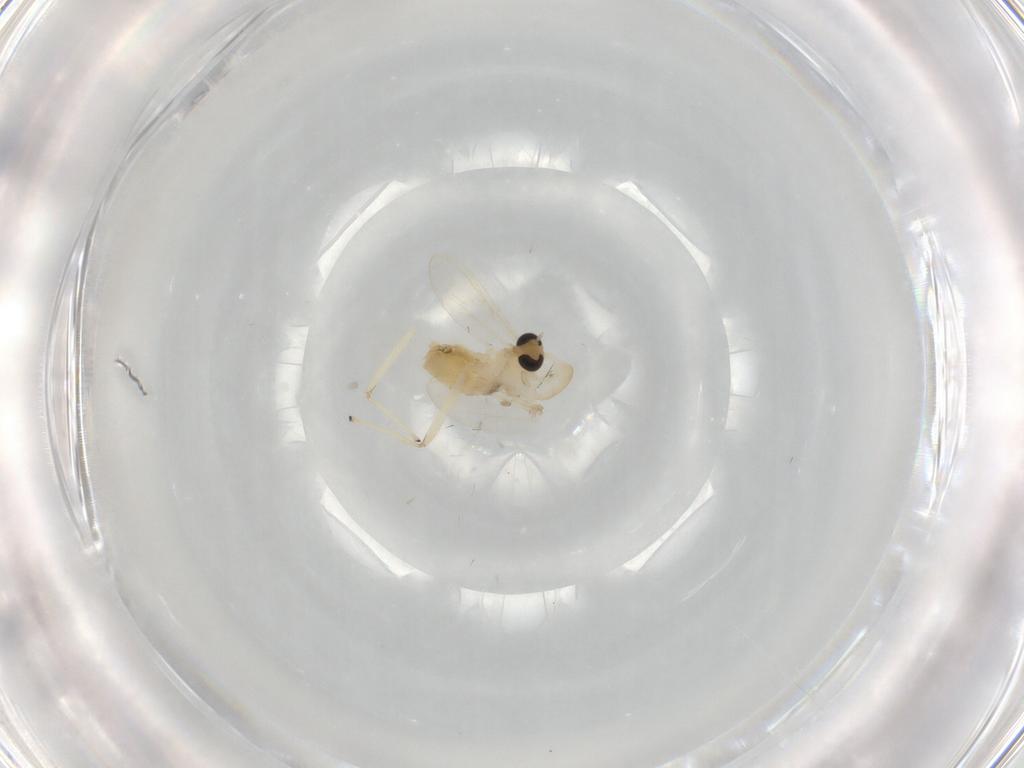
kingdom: Animalia
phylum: Arthropoda
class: Insecta
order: Diptera
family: Chironomidae
